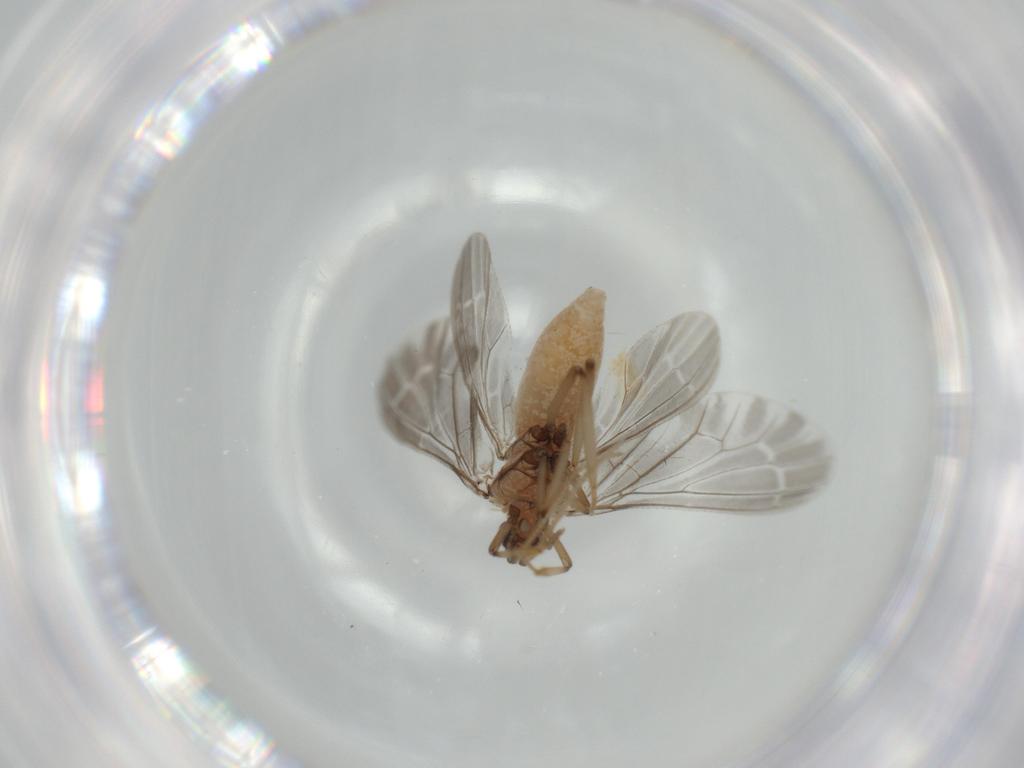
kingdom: Animalia
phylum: Arthropoda
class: Insecta
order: Neuroptera
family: Coniopterygidae
